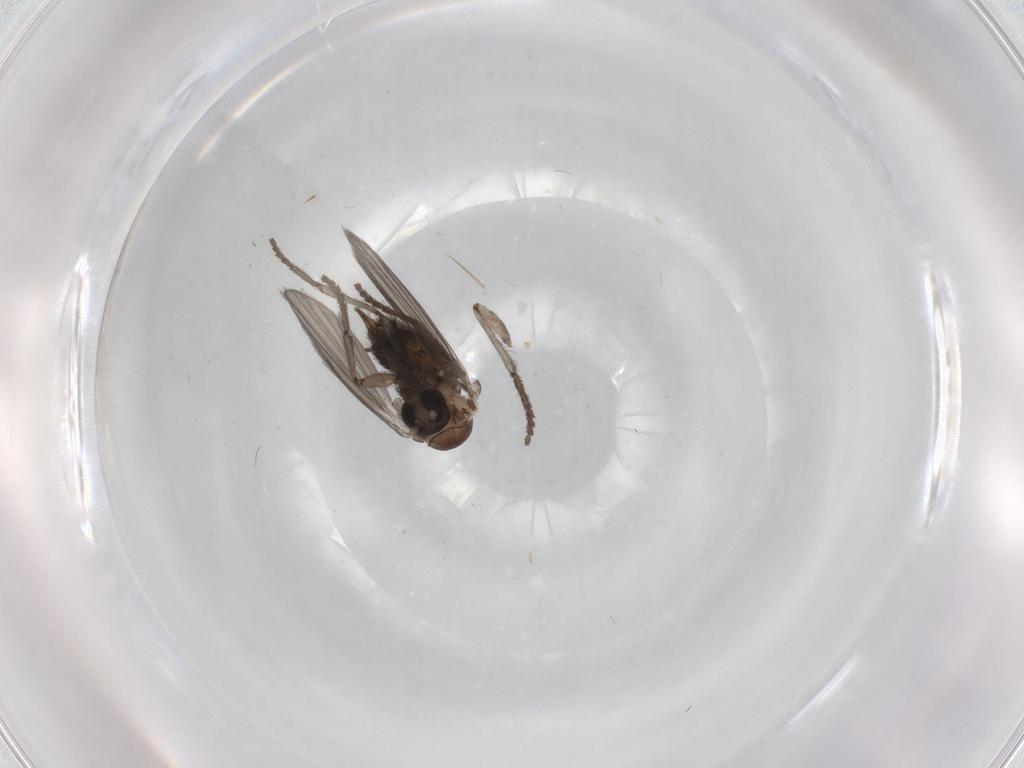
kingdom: Animalia
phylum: Arthropoda
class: Insecta
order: Diptera
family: Psychodidae
